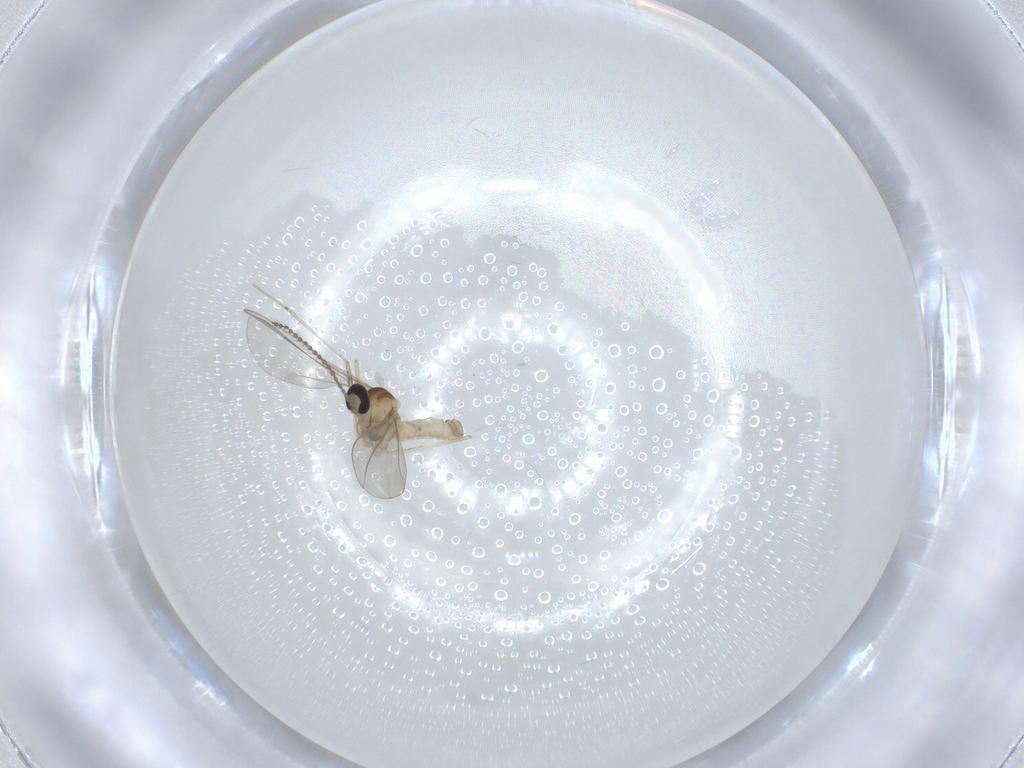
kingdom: Animalia
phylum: Arthropoda
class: Insecta
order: Diptera
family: Cecidomyiidae
